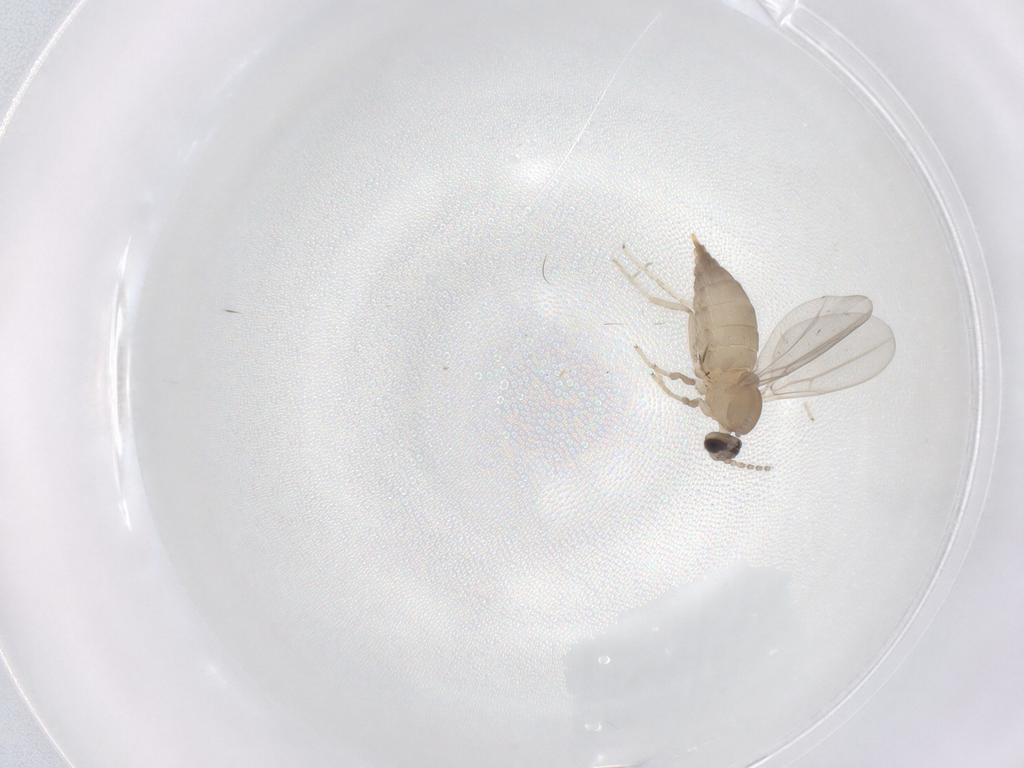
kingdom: Animalia
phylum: Arthropoda
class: Insecta
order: Diptera
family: Cecidomyiidae
